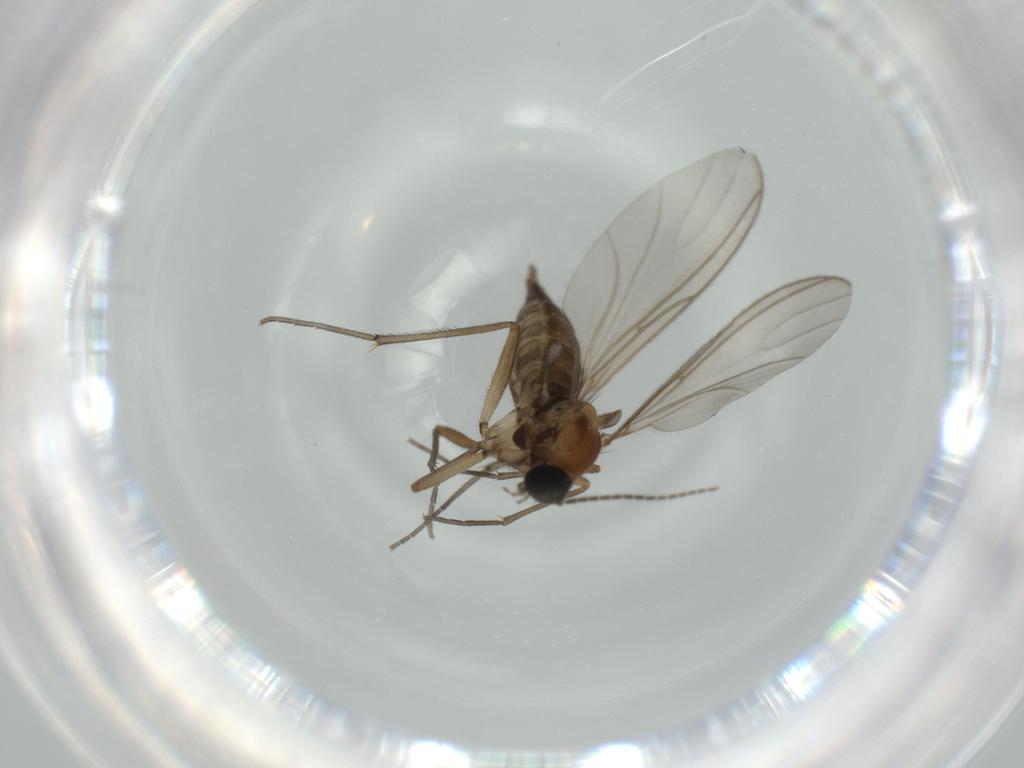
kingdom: Animalia
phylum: Arthropoda
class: Insecta
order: Diptera
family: Sciaridae
